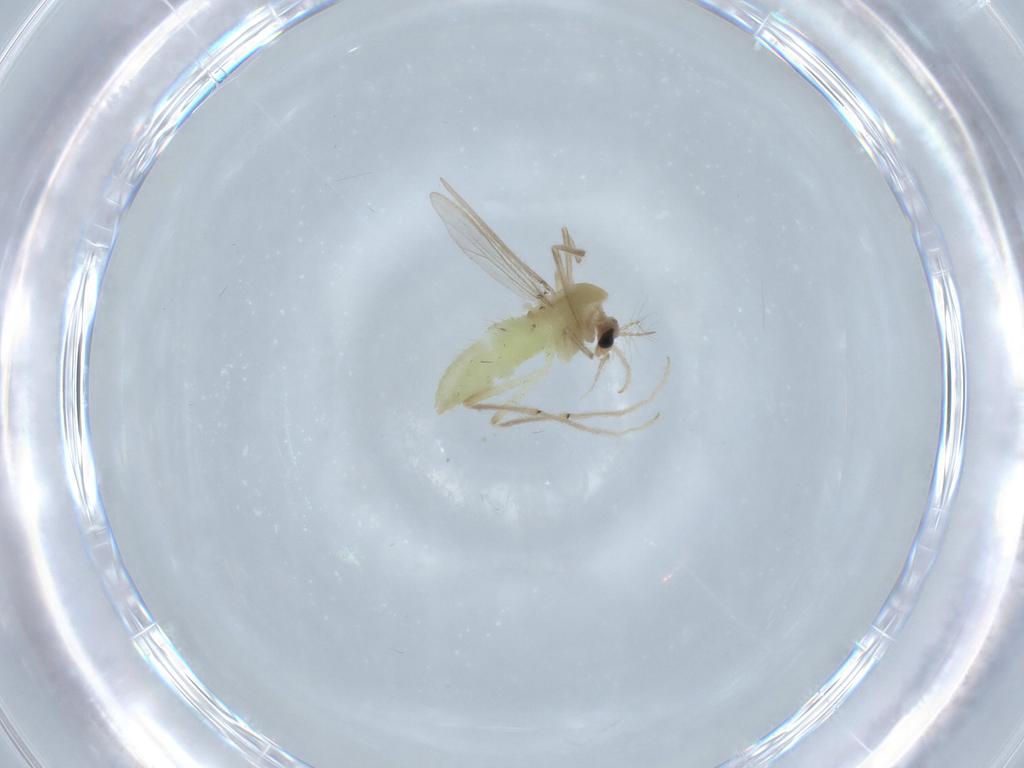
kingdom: Animalia
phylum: Arthropoda
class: Insecta
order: Diptera
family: Chironomidae
